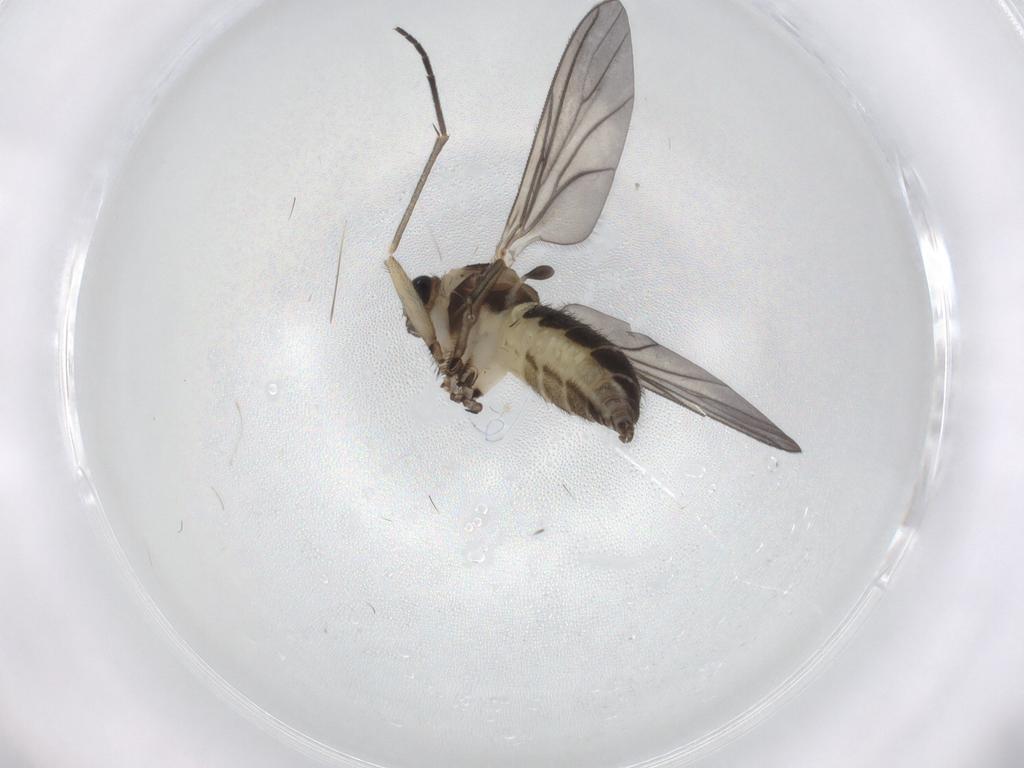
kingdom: Animalia
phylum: Arthropoda
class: Insecta
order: Diptera
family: Sciaridae
